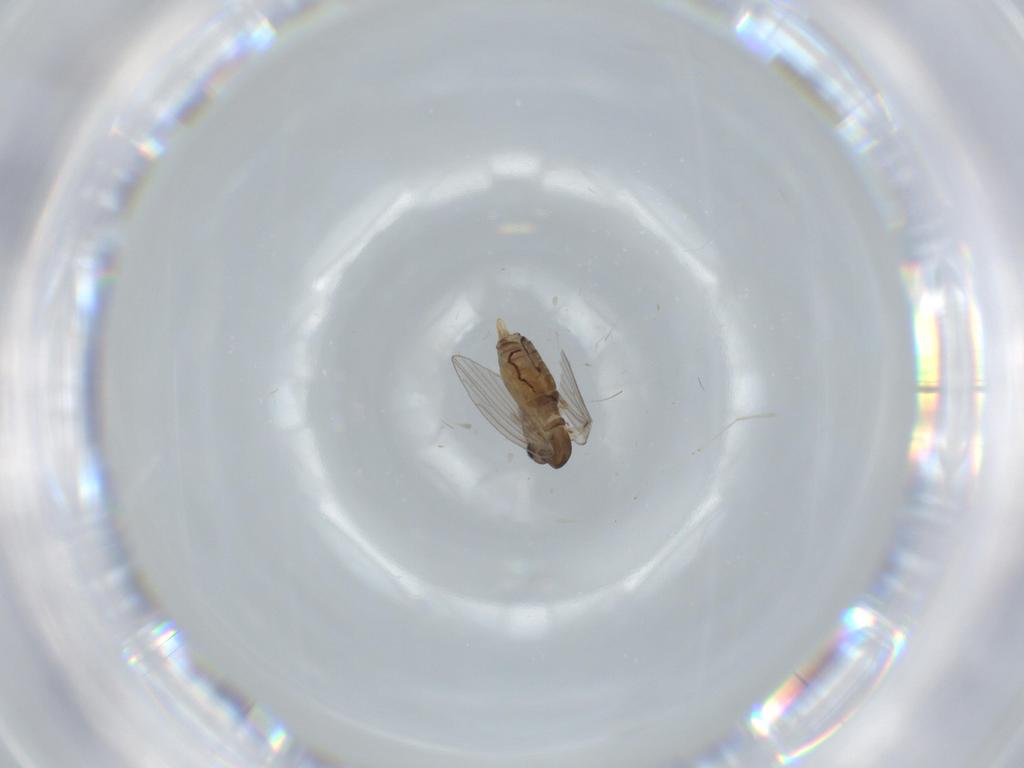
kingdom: Animalia
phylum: Arthropoda
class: Insecta
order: Diptera
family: Cecidomyiidae
